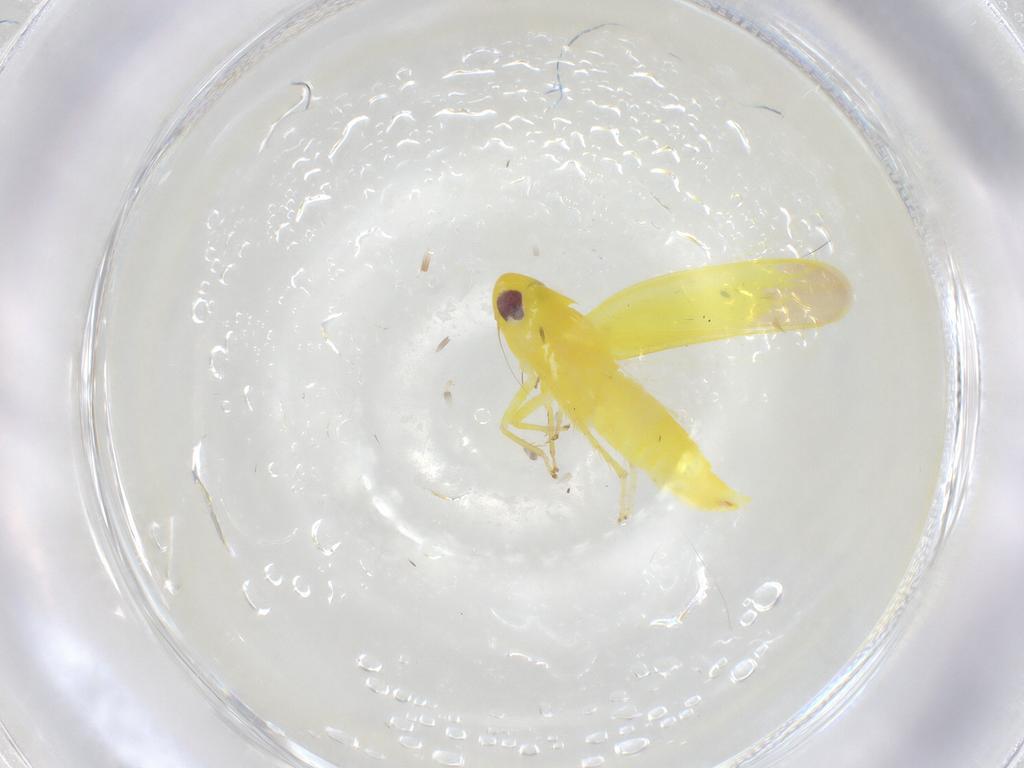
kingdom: Animalia
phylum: Arthropoda
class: Insecta
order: Hemiptera
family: Cicadellidae
